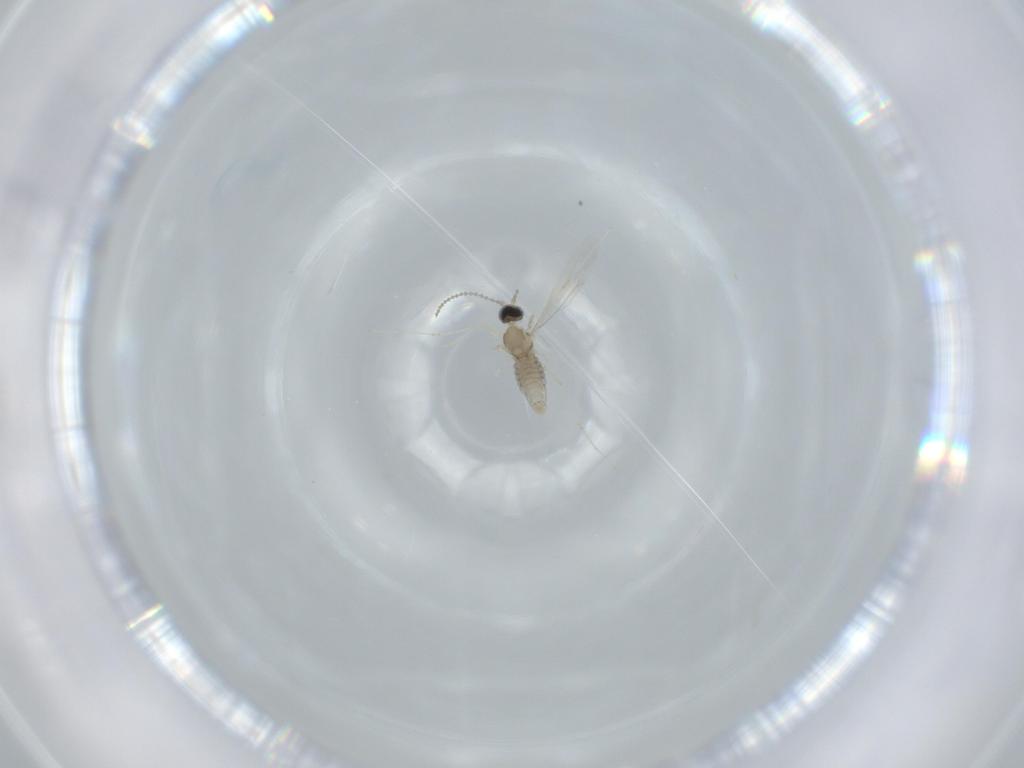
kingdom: Animalia
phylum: Arthropoda
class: Insecta
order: Diptera
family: Cecidomyiidae
